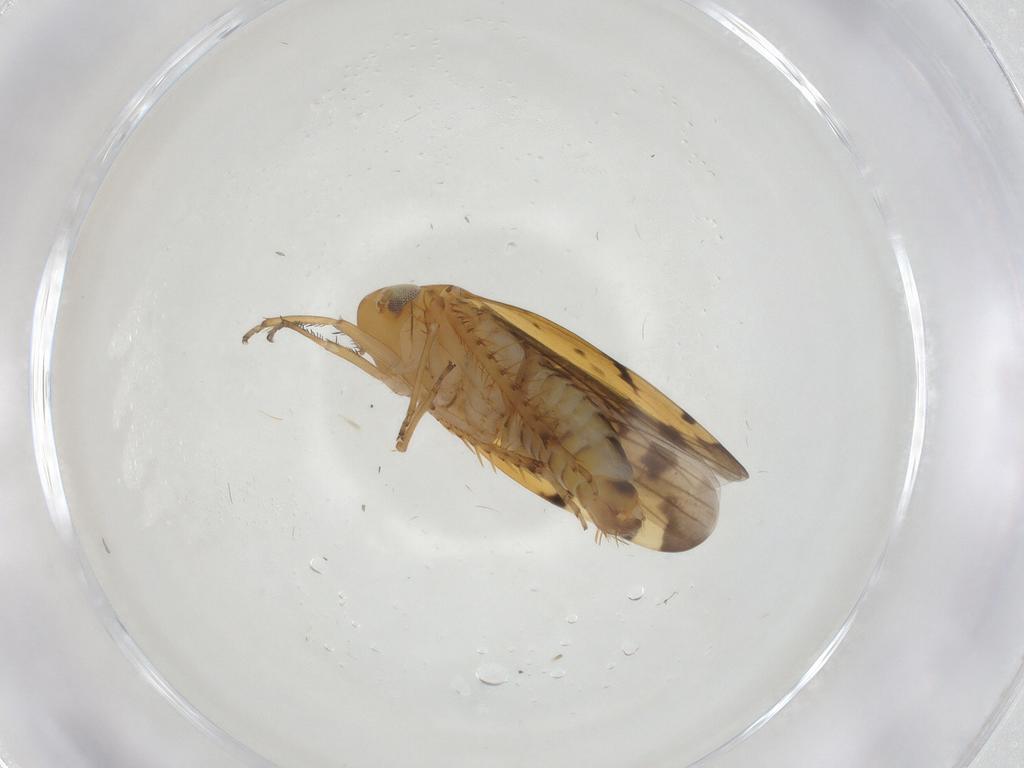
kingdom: Animalia
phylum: Arthropoda
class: Insecta
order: Hemiptera
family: Cicadellidae
